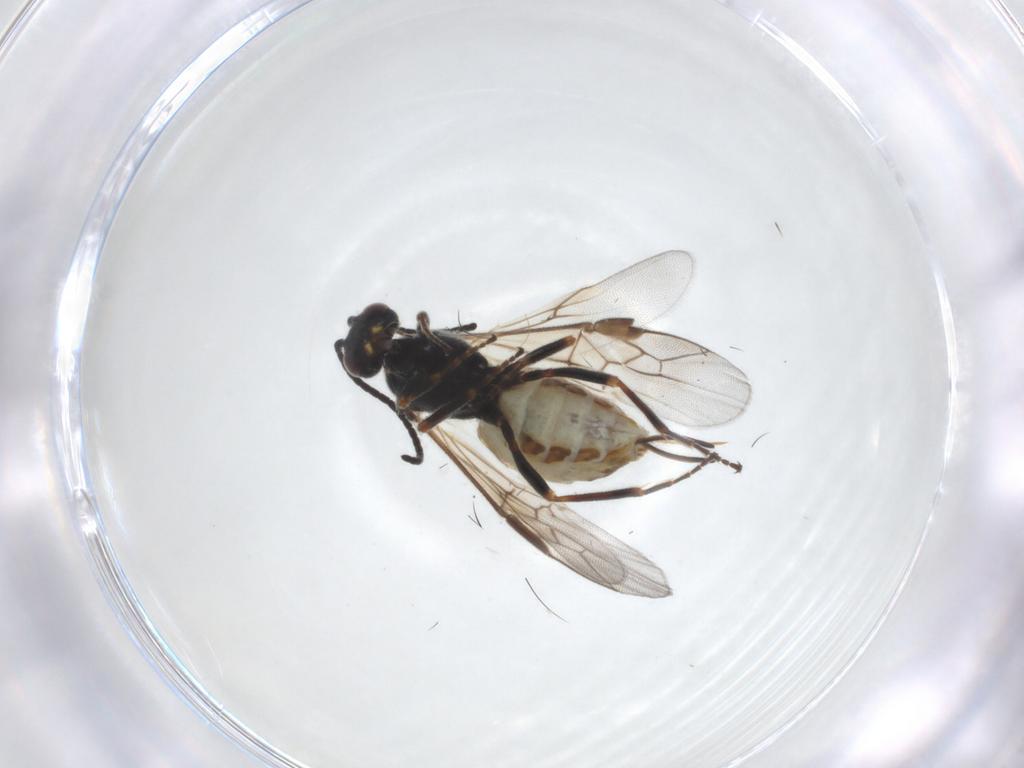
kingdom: Animalia
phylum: Arthropoda
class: Insecta
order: Hymenoptera
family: Braconidae
